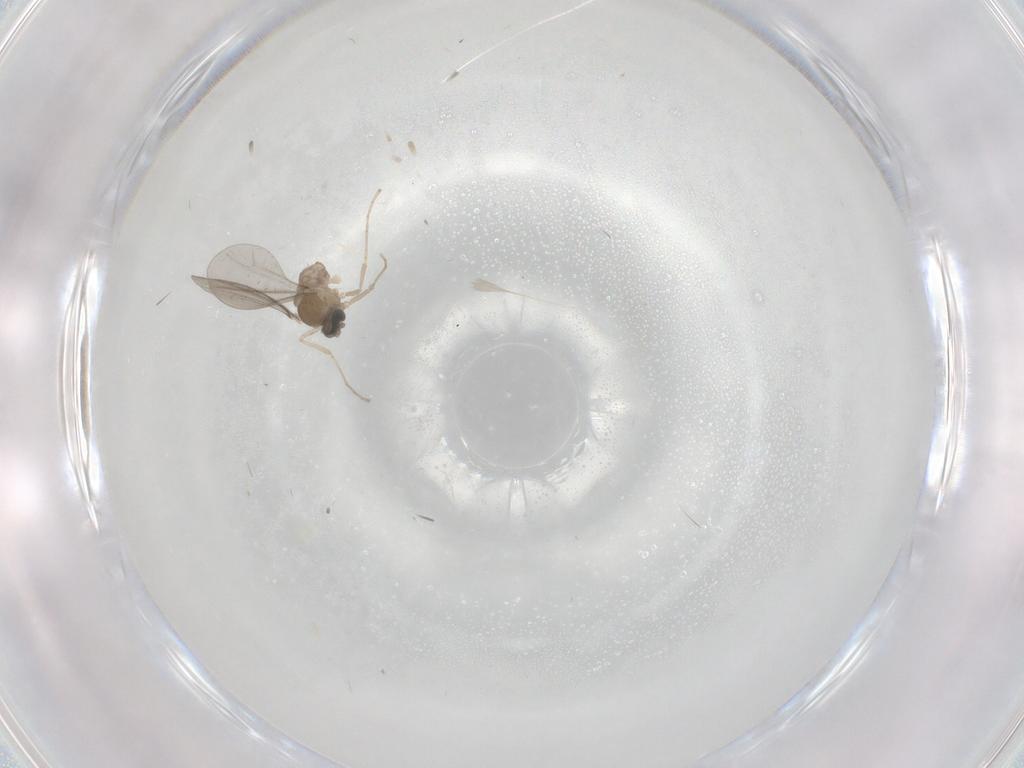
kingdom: Animalia
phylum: Arthropoda
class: Insecta
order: Diptera
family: Cecidomyiidae
